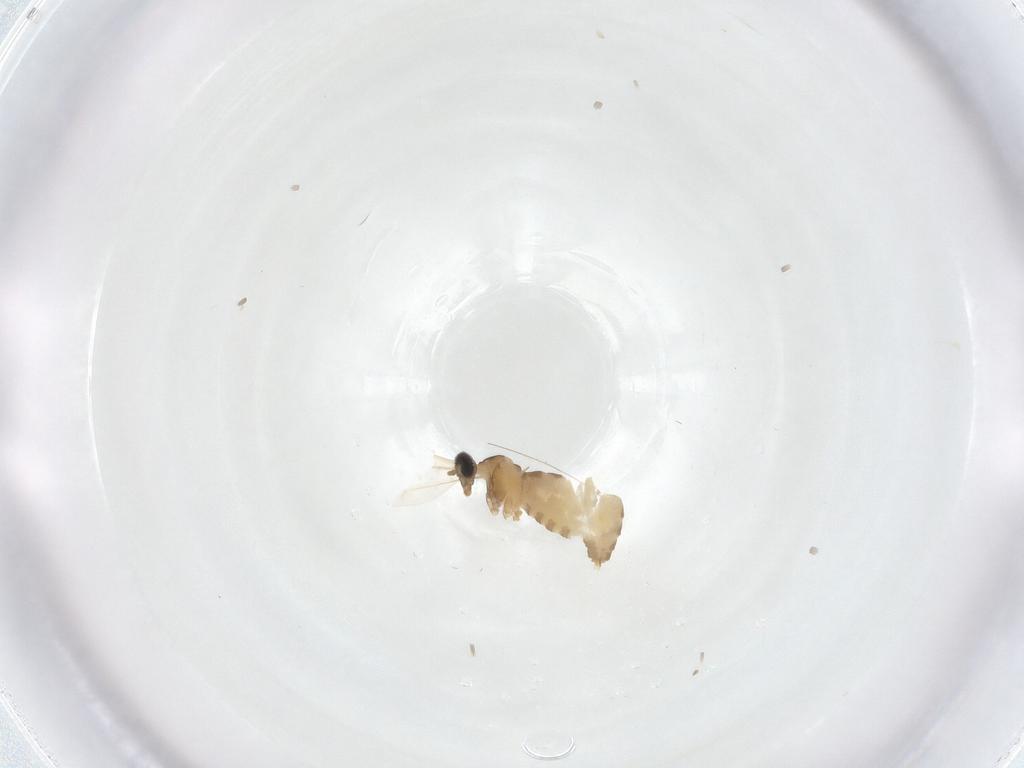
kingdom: Animalia
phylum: Arthropoda
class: Insecta
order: Diptera
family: Cecidomyiidae
